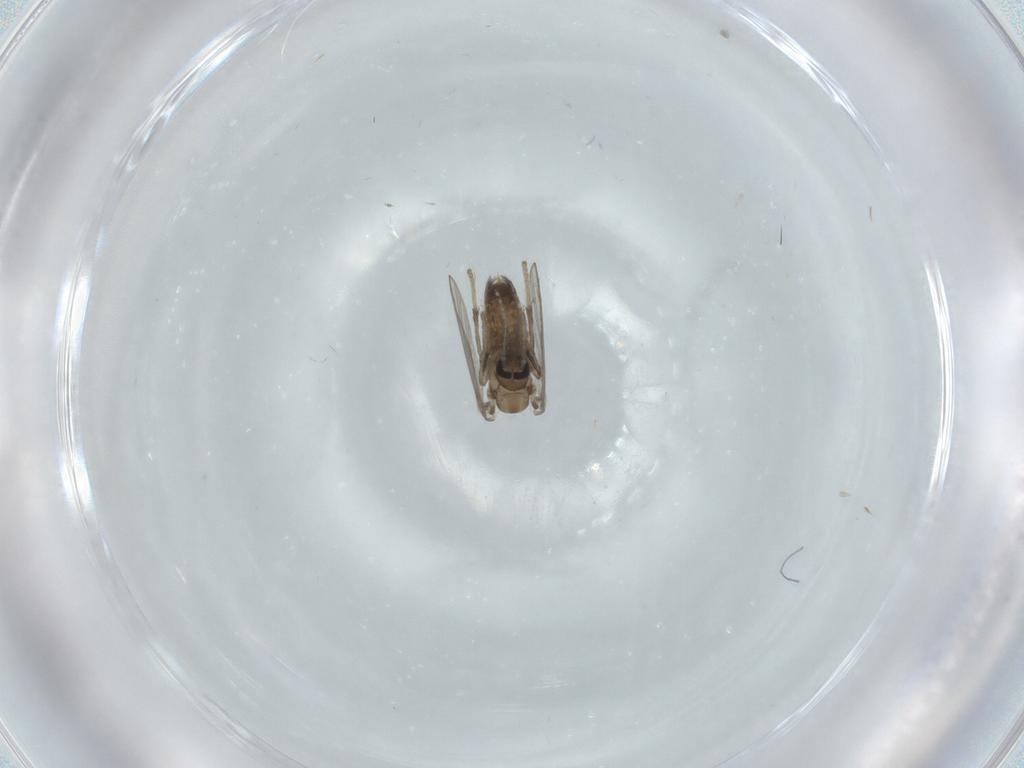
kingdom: Animalia
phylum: Arthropoda
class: Insecta
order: Diptera
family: Psychodidae
